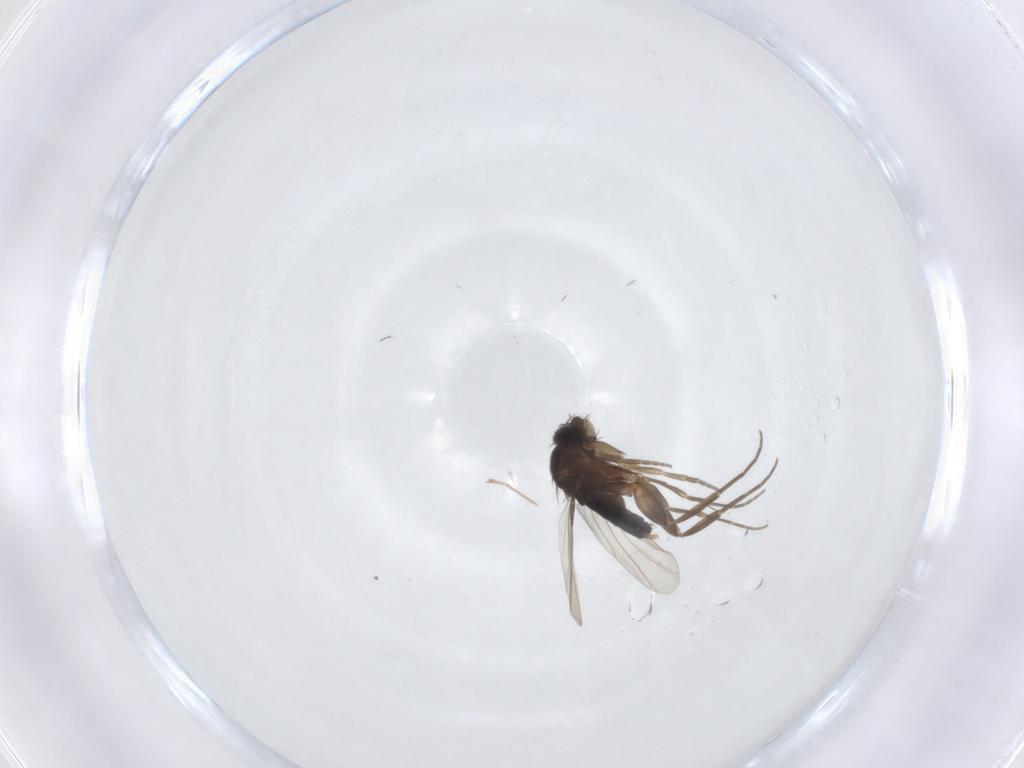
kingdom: Animalia
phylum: Arthropoda
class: Insecta
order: Diptera
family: Phoridae
